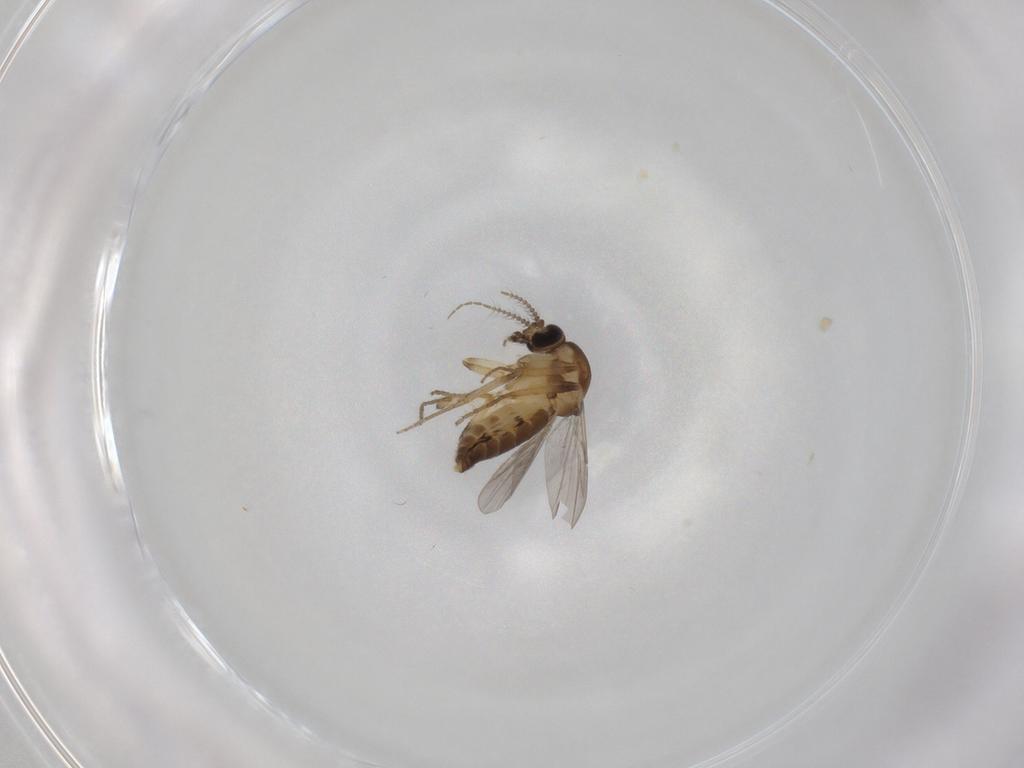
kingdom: Animalia
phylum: Arthropoda
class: Insecta
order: Diptera
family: Ceratopogonidae
